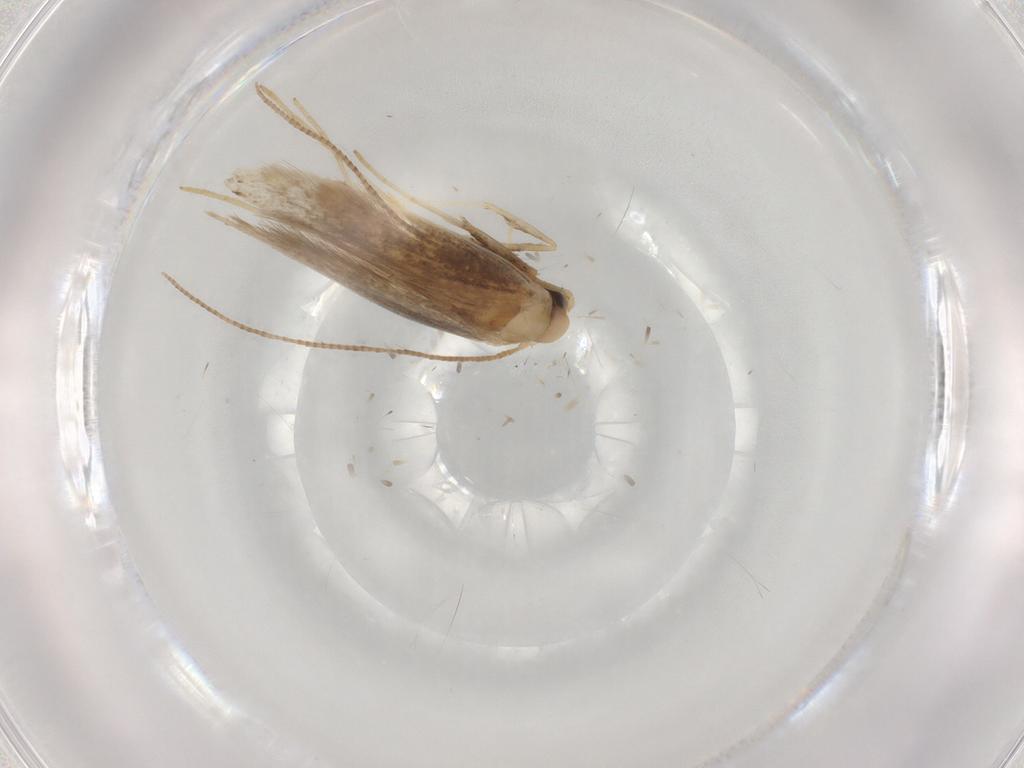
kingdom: Animalia
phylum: Arthropoda
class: Insecta
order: Lepidoptera
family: Gracillariidae
